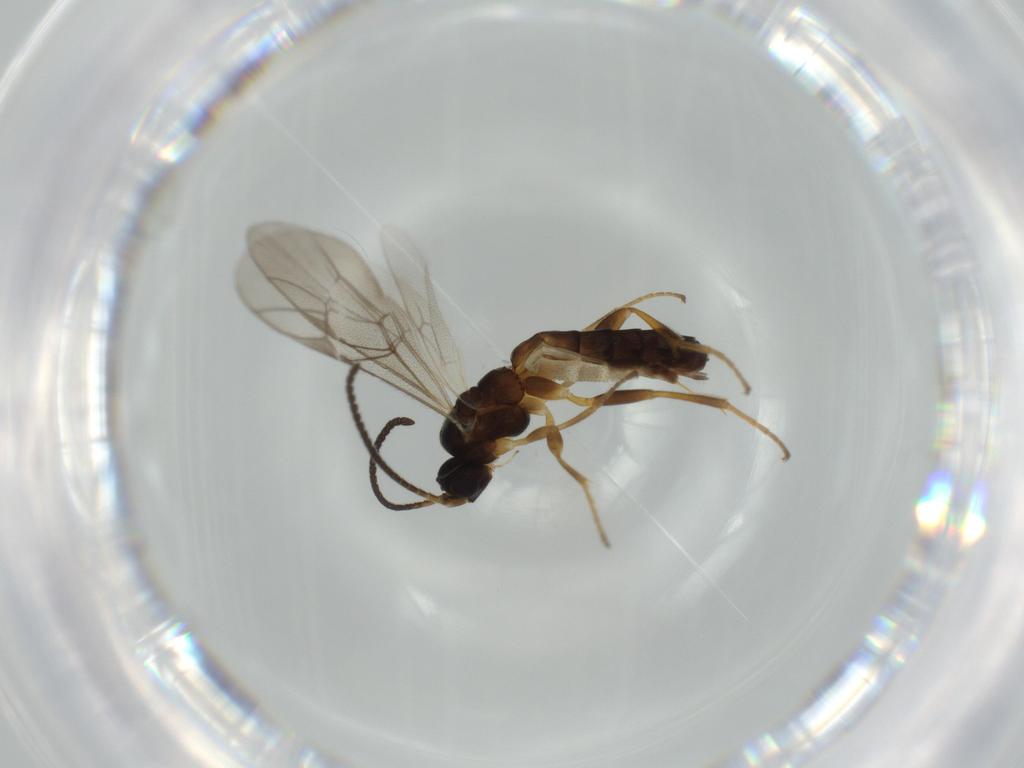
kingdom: Animalia
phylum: Arthropoda
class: Insecta
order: Hymenoptera
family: Ichneumonidae
